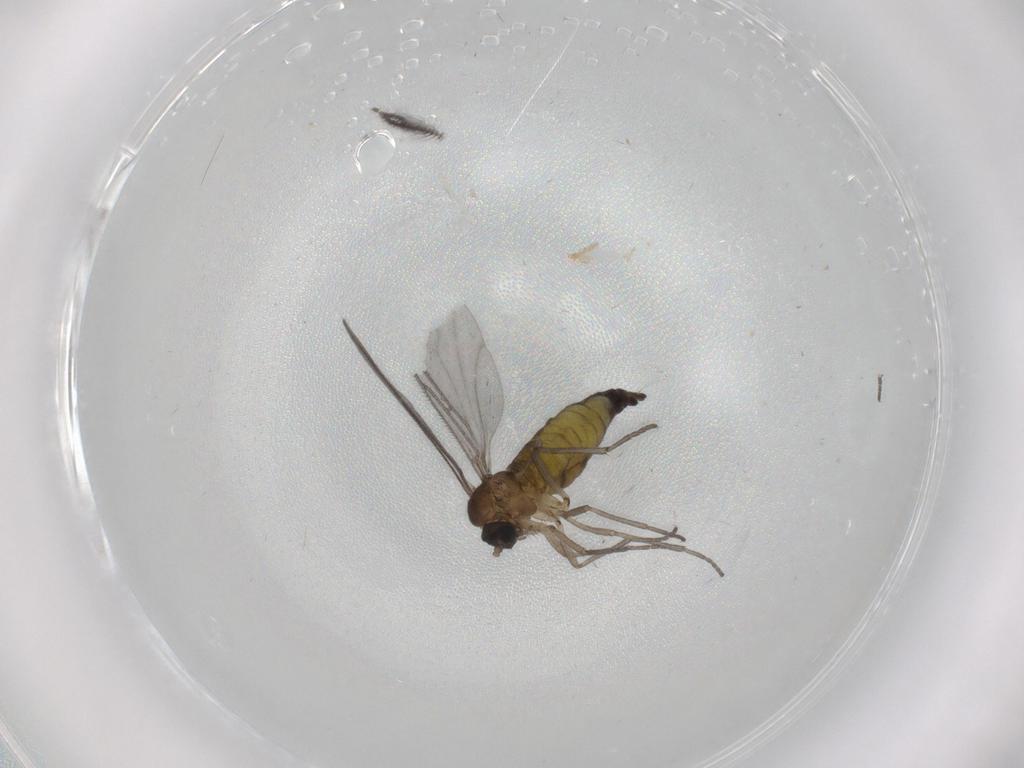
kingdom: Animalia
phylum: Arthropoda
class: Insecta
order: Diptera
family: Sciaridae
